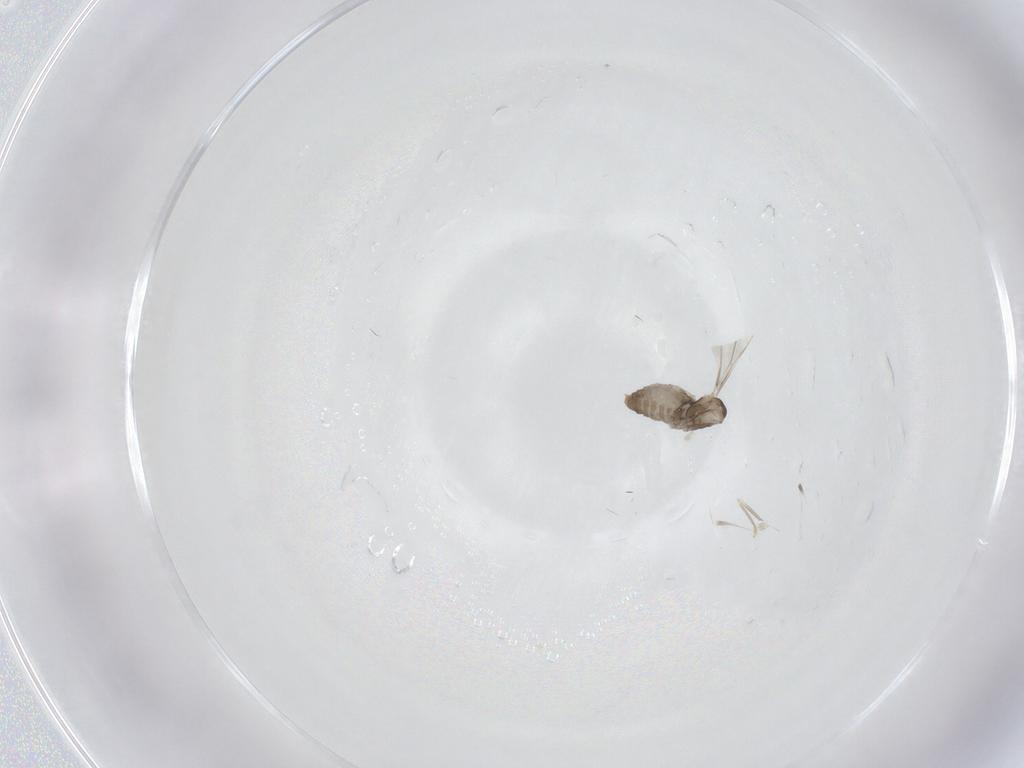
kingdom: Animalia
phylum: Arthropoda
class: Insecta
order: Diptera
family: Cecidomyiidae
